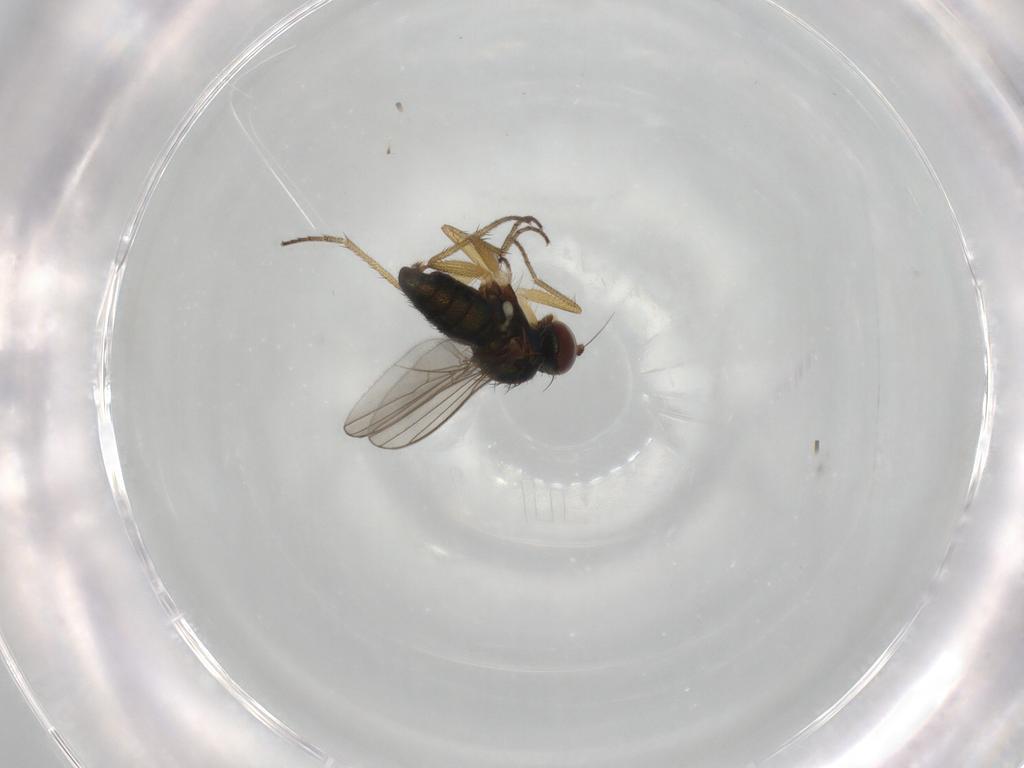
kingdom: Animalia
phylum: Arthropoda
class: Insecta
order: Diptera
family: Dolichopodidae
